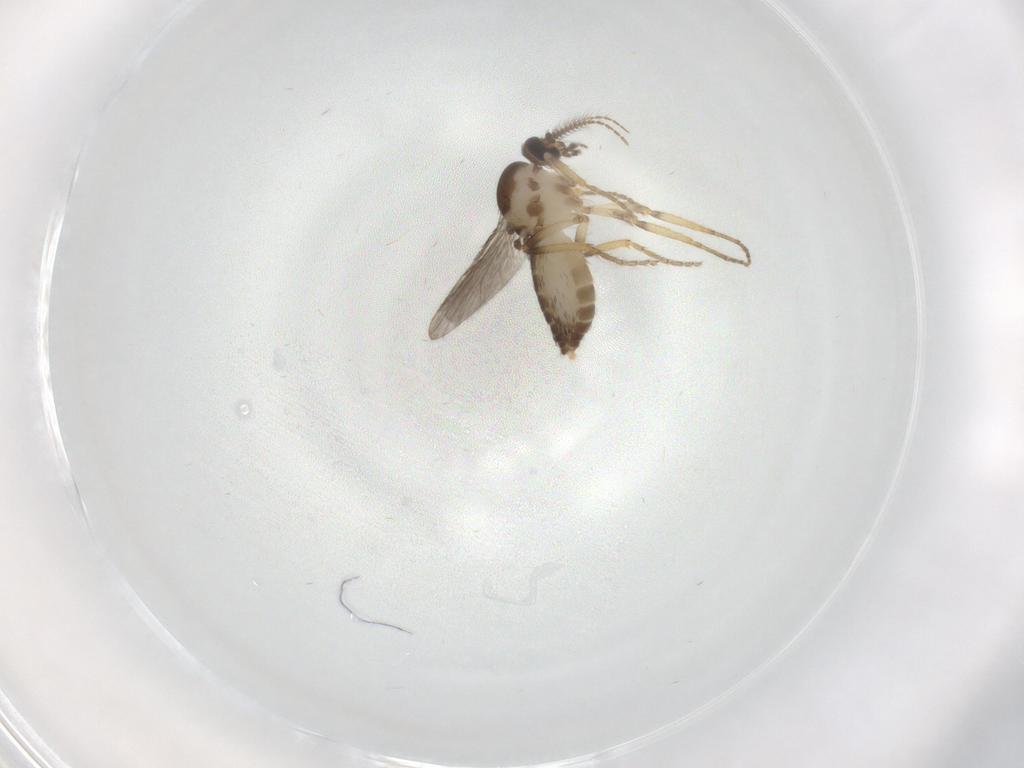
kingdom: Animalia
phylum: Arthropoda
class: Insecta
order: Diptera
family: Ceratopogonidae
